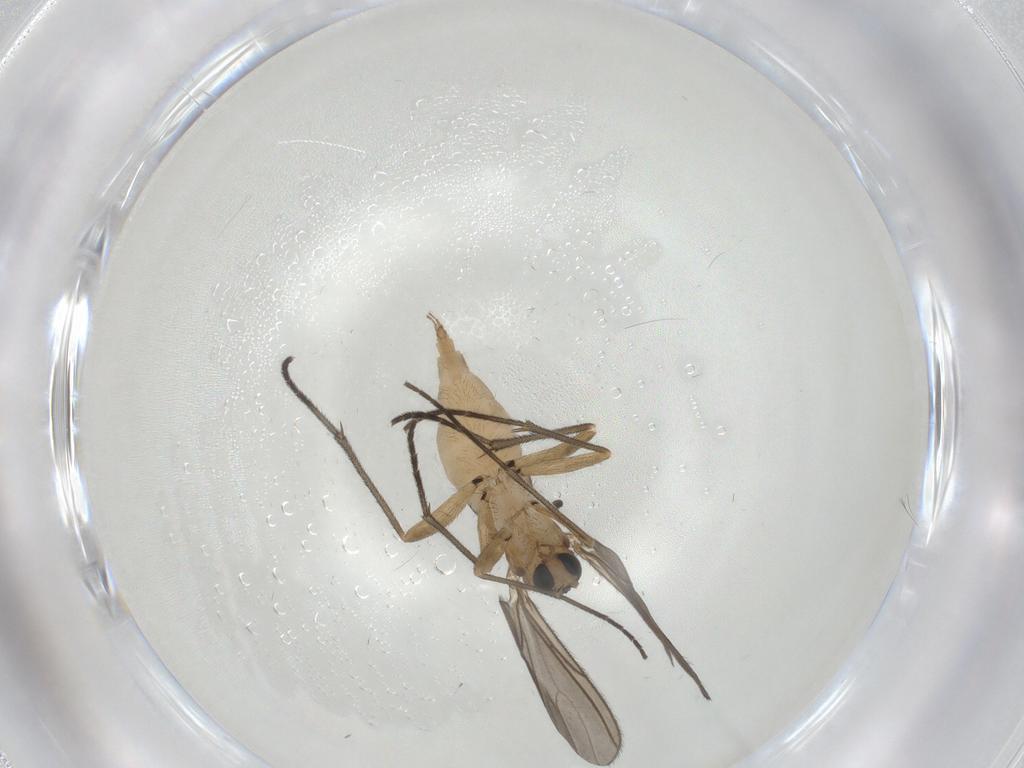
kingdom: Animalia
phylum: Arthropoda
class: Insecta
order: Diptera
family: Sciaridae
